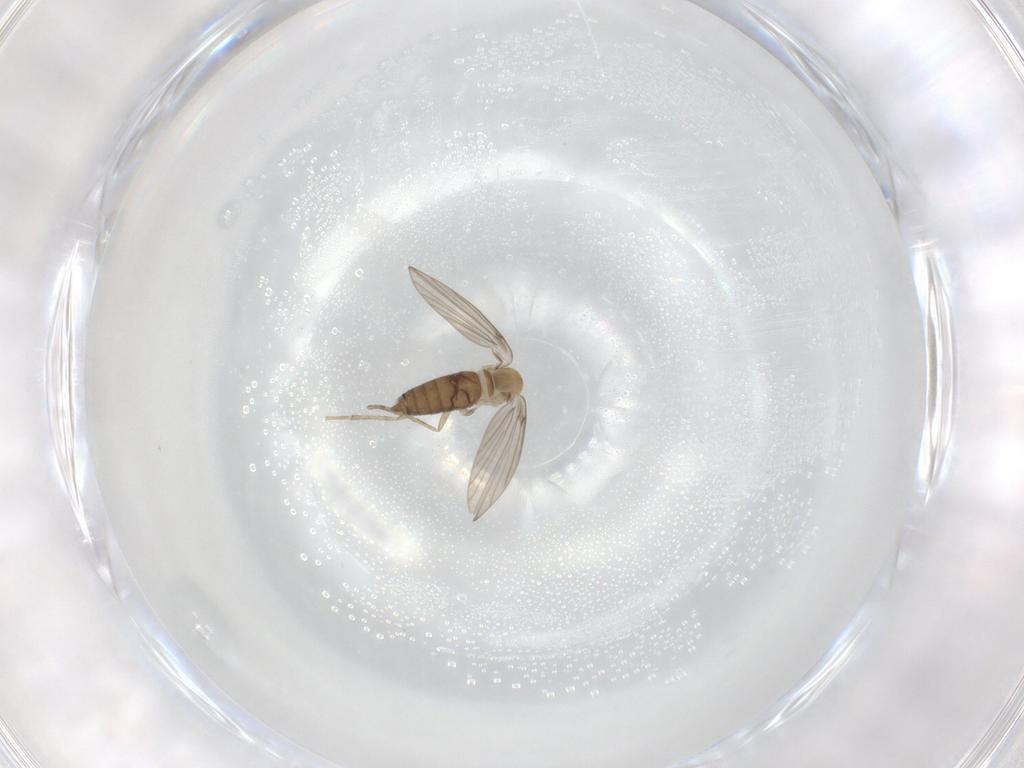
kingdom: Animalia
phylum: Arthropoda
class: Insecta
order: Diptera
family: Psychodidae
